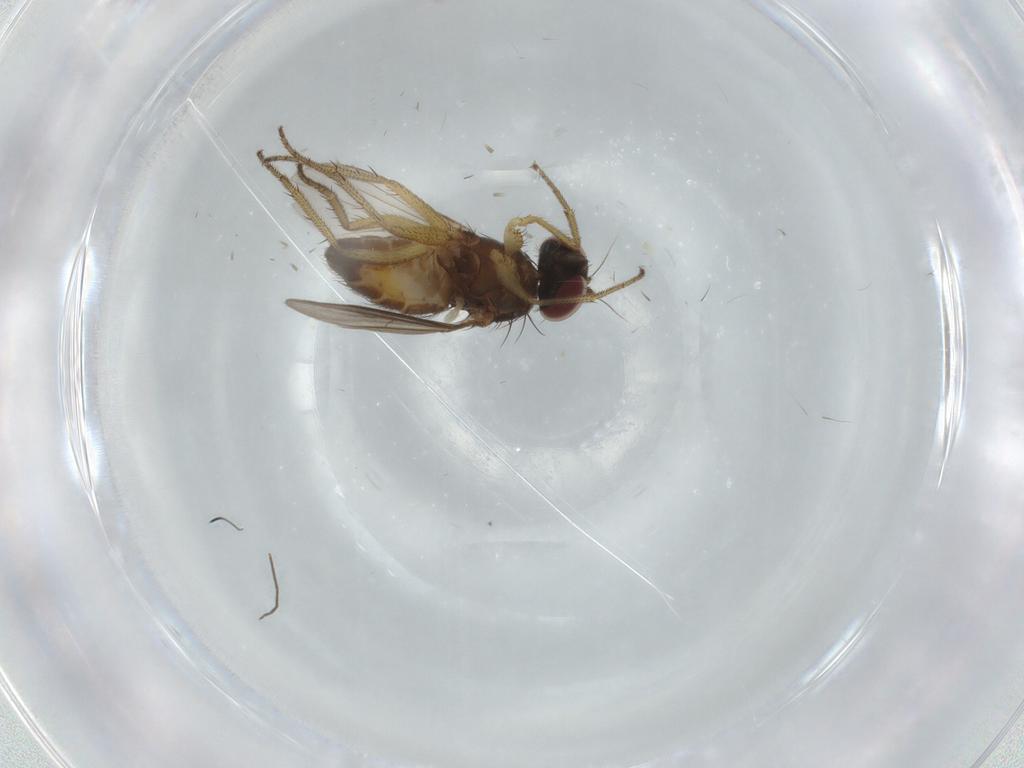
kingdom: Animalia
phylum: Arthropoda
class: Insecta
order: Diptera
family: Dolichopodidae
